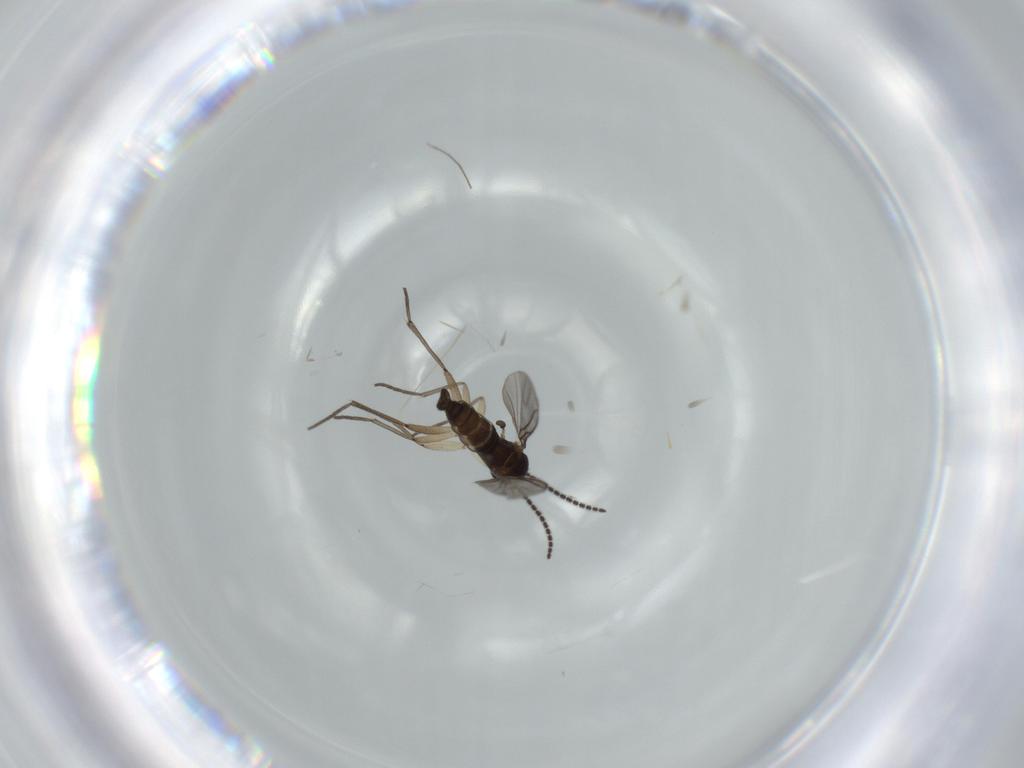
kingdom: Animalia
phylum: Arthropoda
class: Insecta
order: Diptera
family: Sciaridae
